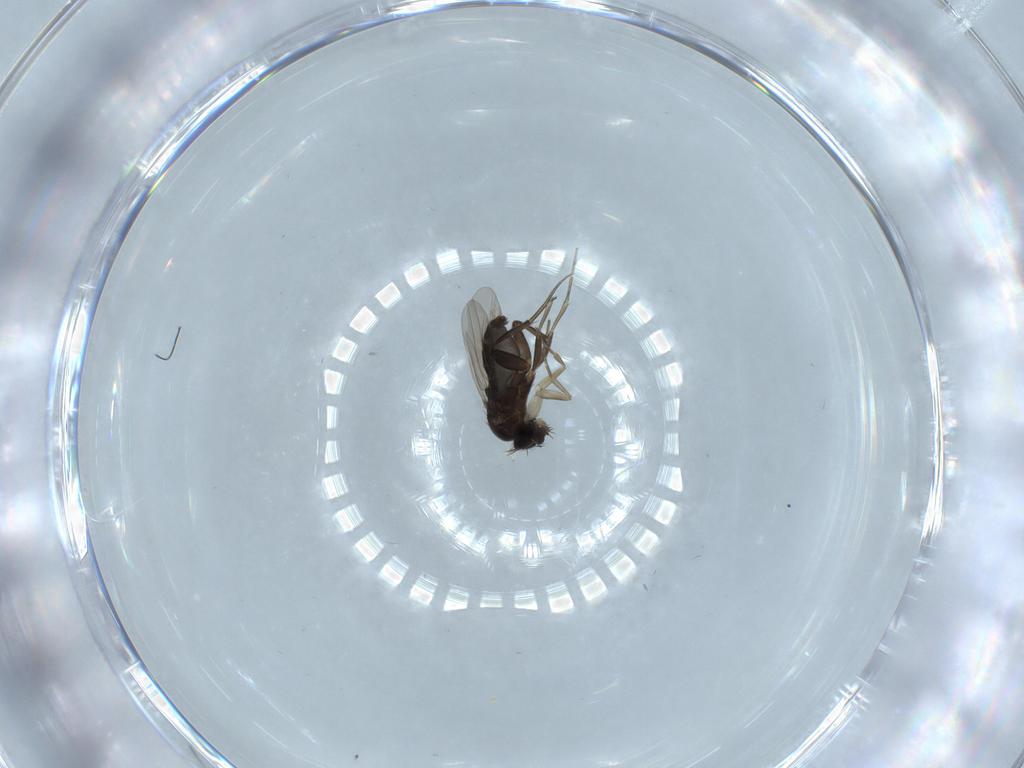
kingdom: Animalia
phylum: Arthropoda
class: Insecta
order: Diptera
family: Phoridae
